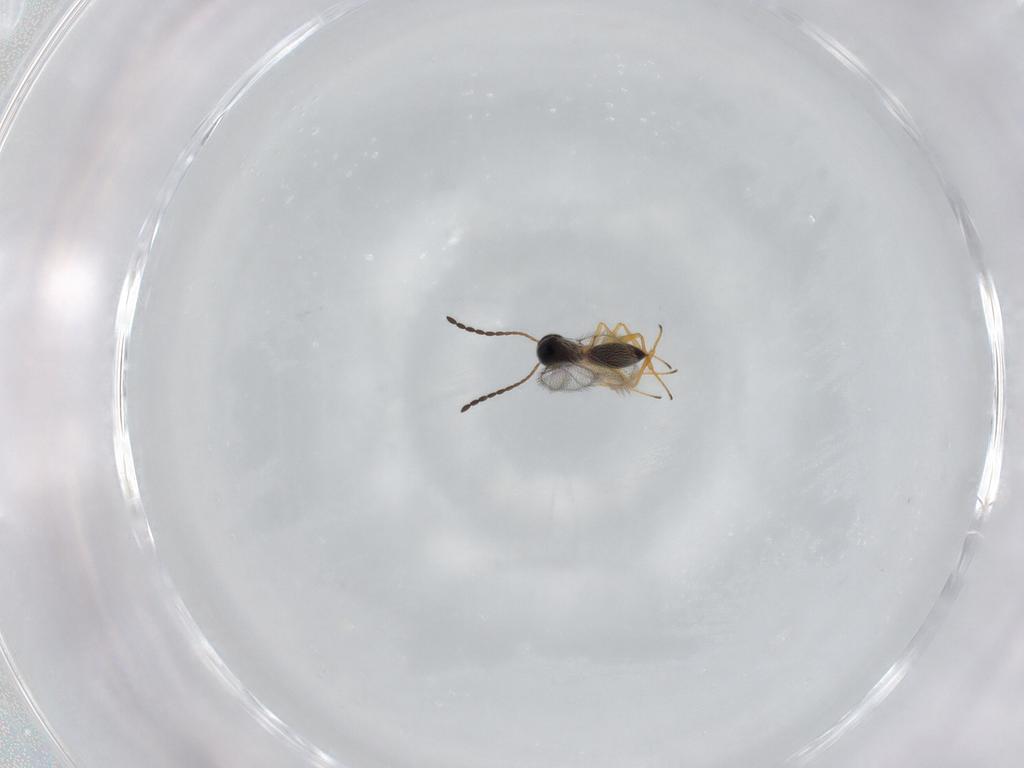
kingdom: Animalia
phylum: Arthropoda
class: Insecta
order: Hymenoptera
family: Figitidae
